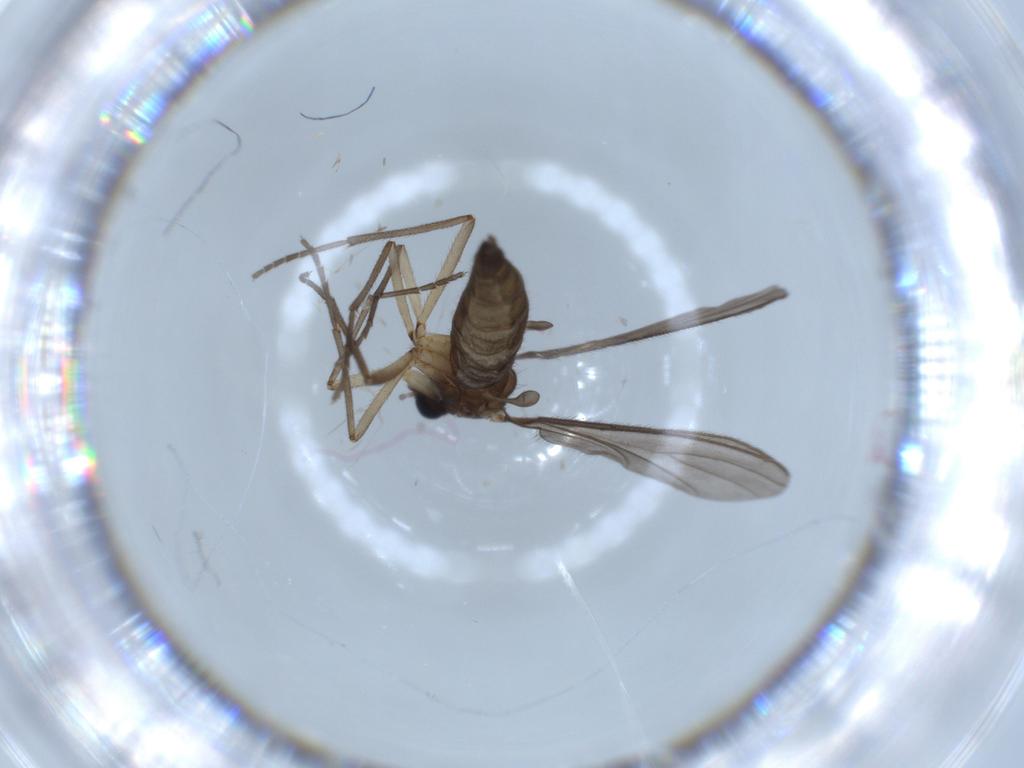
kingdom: Animalia
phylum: Arthropoda
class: Insecta
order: Diptera
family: Sciaridae
